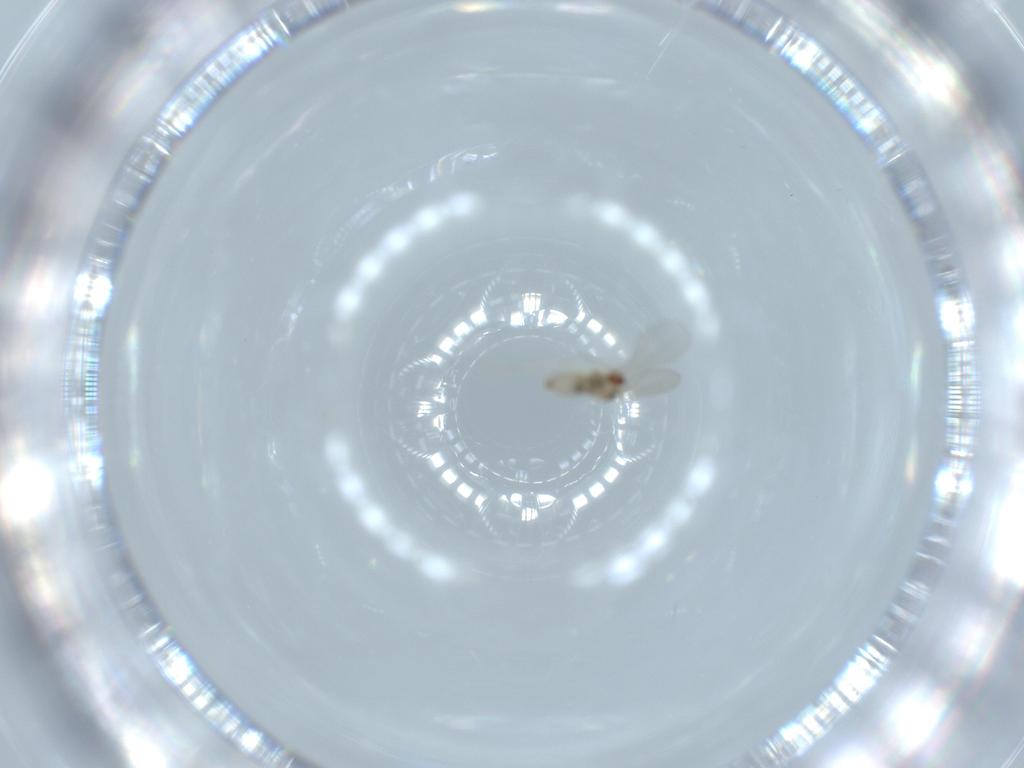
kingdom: Animalia
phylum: Arthropoda
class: Insecta
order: Diptera
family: Cecidomyiidae
